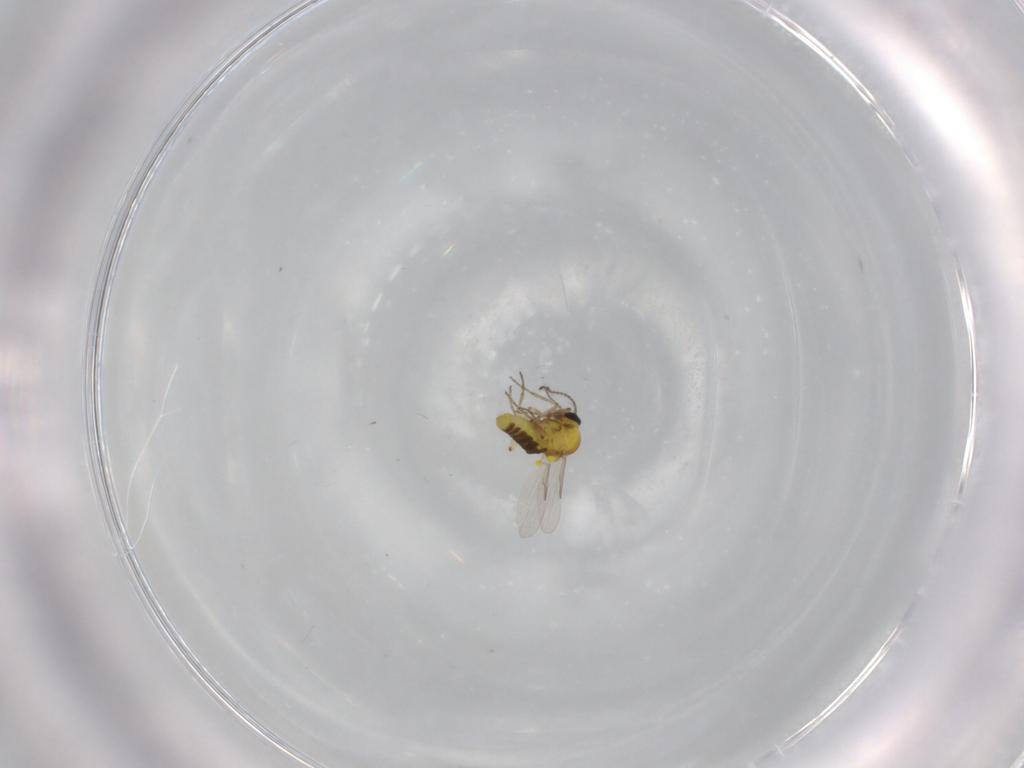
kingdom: Animalia
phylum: Arthropoda
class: Insecta
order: Diptera
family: Ceratopogonidae
